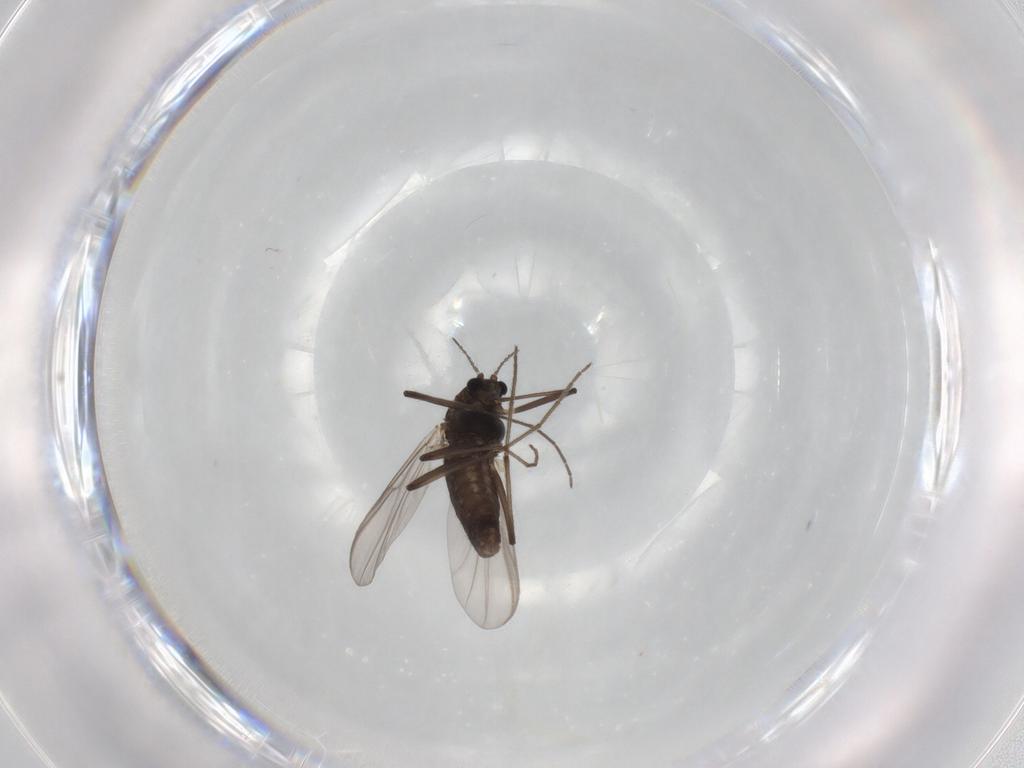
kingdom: Animalia
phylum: Arthropoda
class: Insecta
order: Diptera
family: Chironomidae
